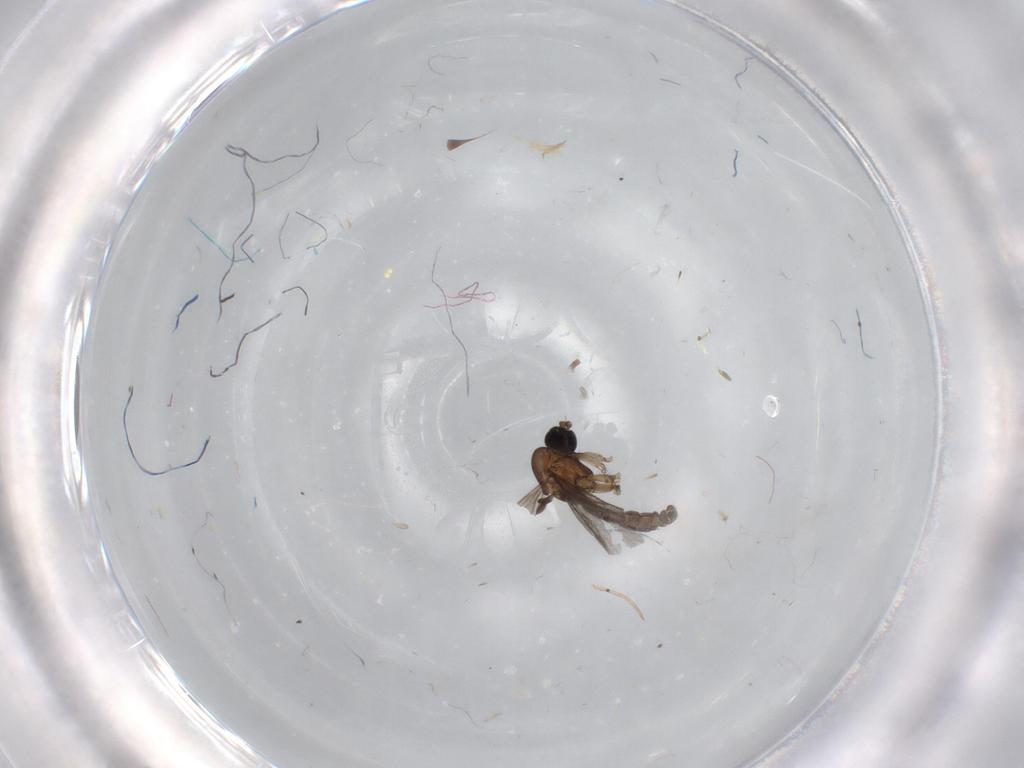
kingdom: Animalia
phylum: Arthropoda
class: Insecta
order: Diptera
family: Sciaridae
